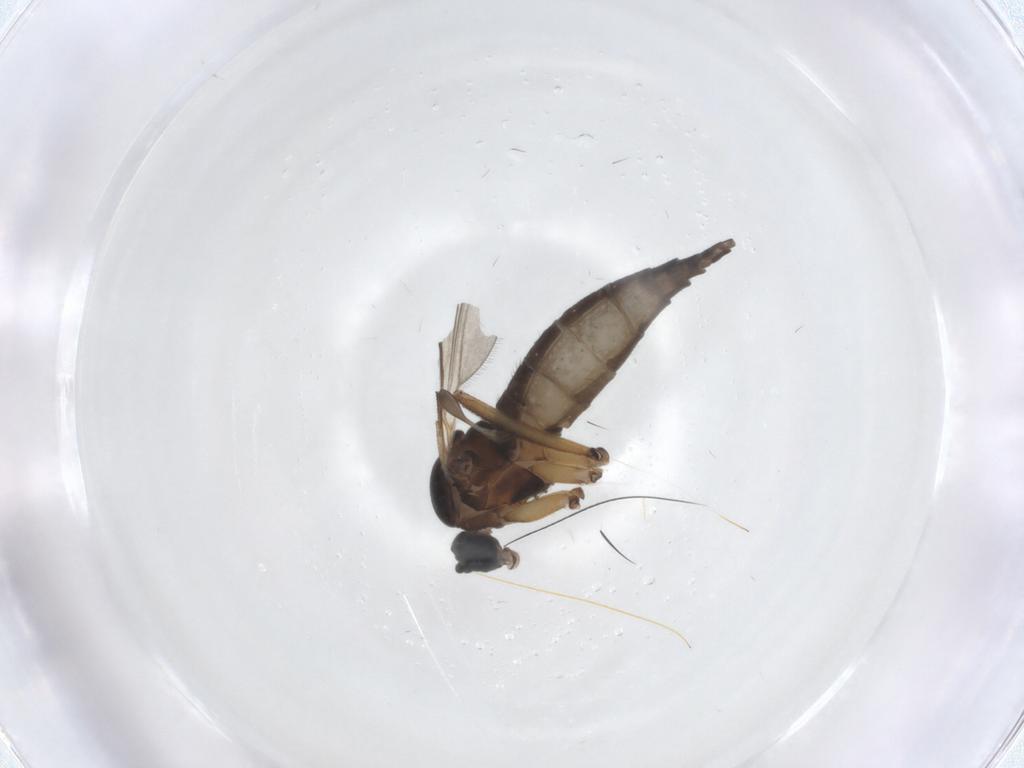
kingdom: Animalia
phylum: Arthropoda
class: Insecta
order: Diptera
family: Sciaridae
